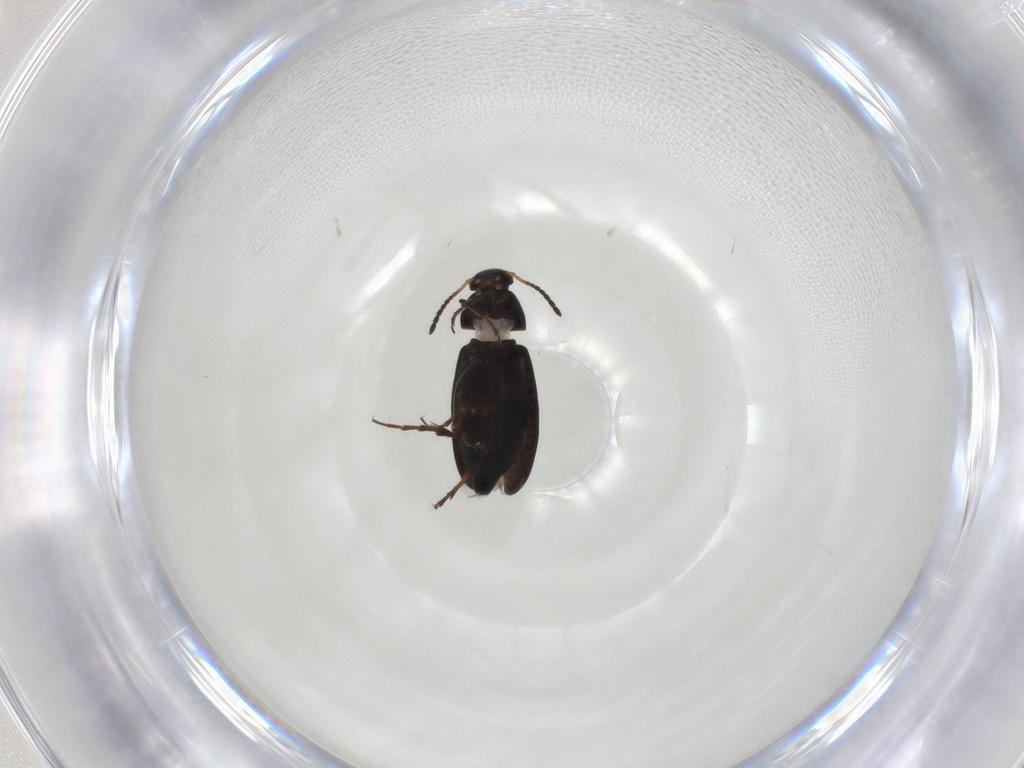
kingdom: Animalia
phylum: Arthropoda
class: Insecta
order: Coleoptera
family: Scraptiidae
